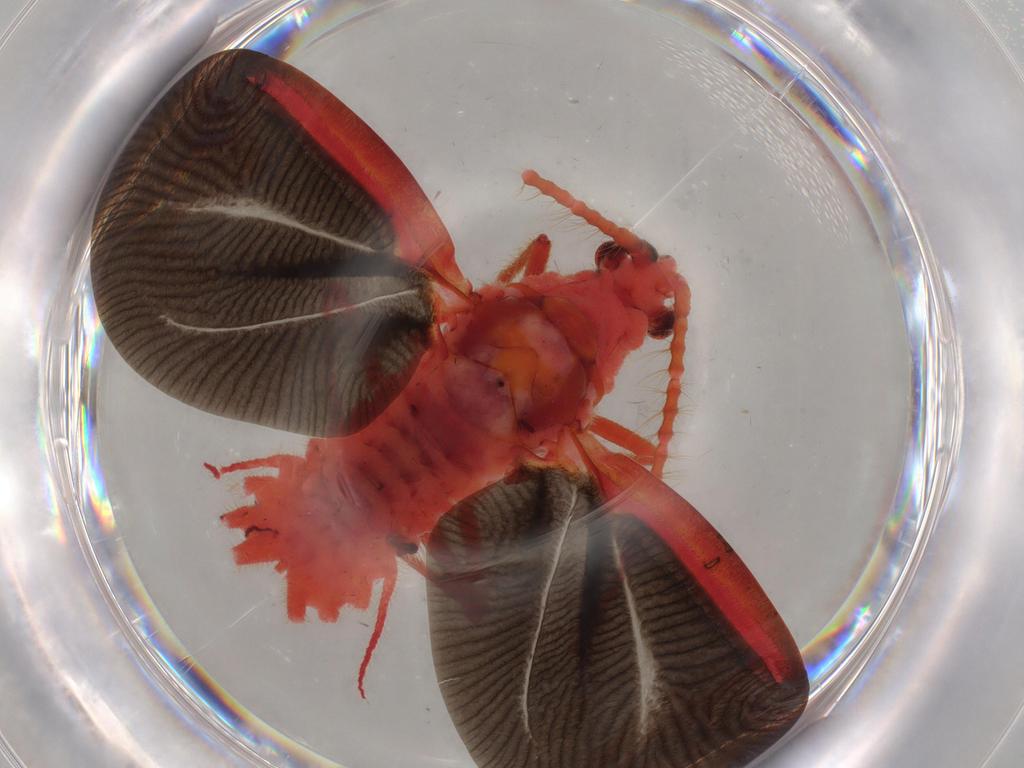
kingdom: Animalia
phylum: Arthropoda
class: Insecta
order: Hemiptera
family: Monophlebidae
